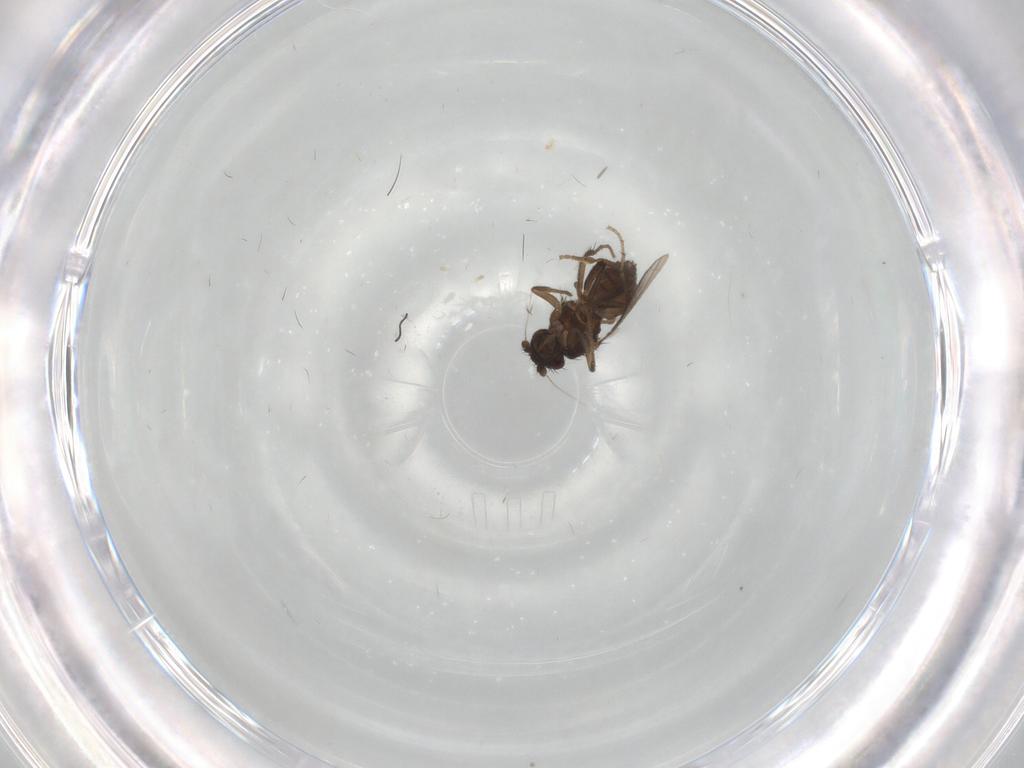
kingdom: Animalia
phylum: Arthropoda
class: Insecta
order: Diptera
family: Sphaeroceridae
